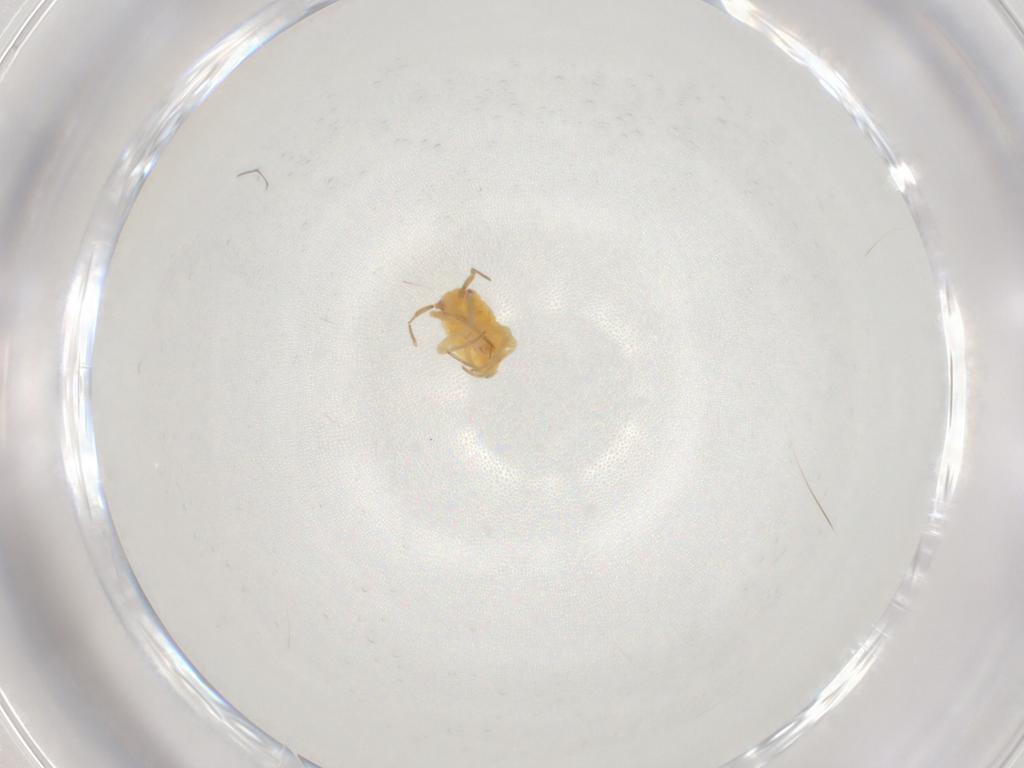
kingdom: Animalia
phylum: Arthropoda
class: Insecta
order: Hemiptera
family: Miridae
